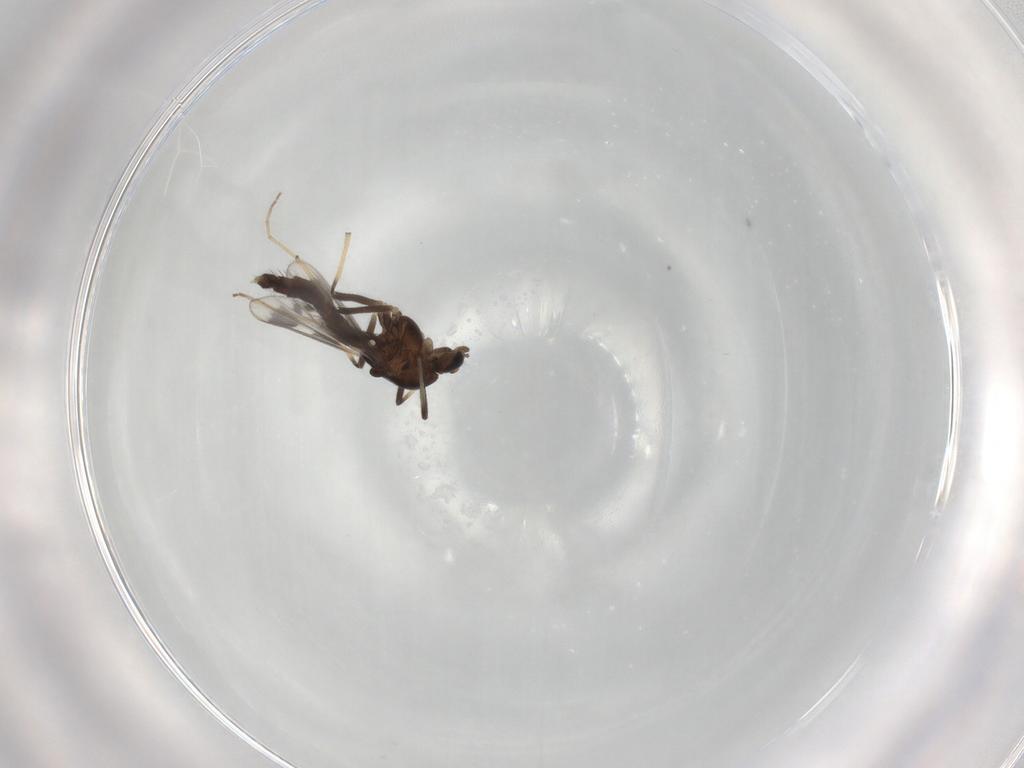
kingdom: Animalia
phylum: Arthropoda
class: Insecta
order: Diptera
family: Chironomidae
